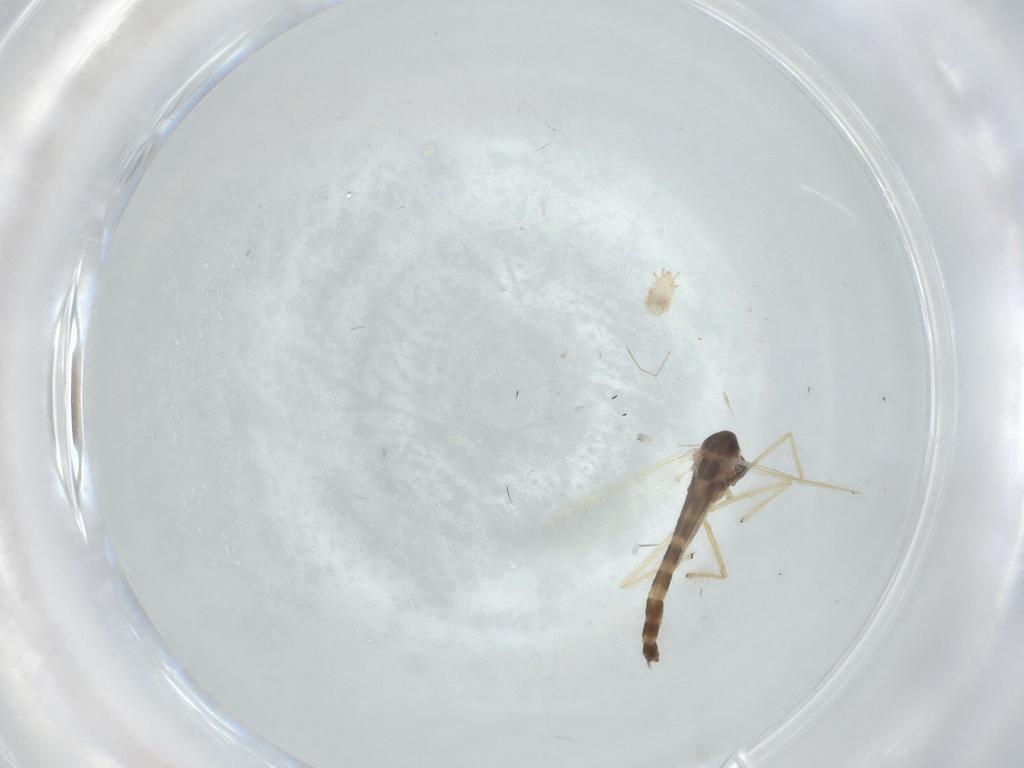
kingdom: Animalia
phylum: Arthropoda
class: Insecta
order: Diptera
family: Chironomidae
